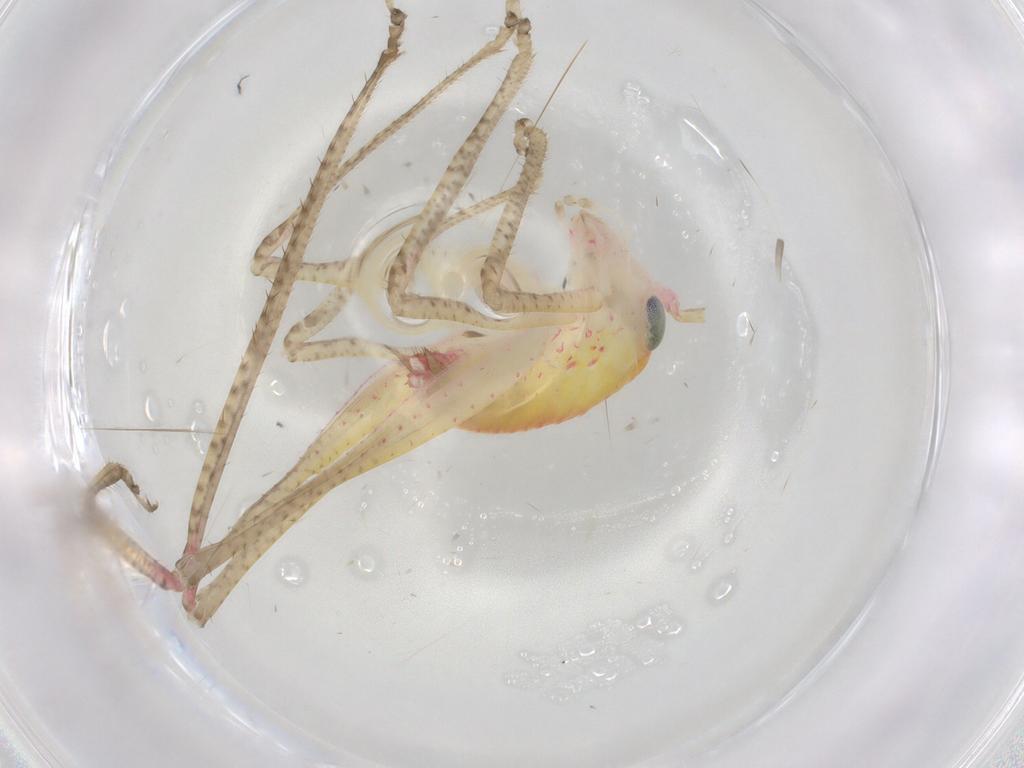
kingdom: Animalia
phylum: Arthropoda
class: Insecta
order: Orthoptera
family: Tettigoniidae
